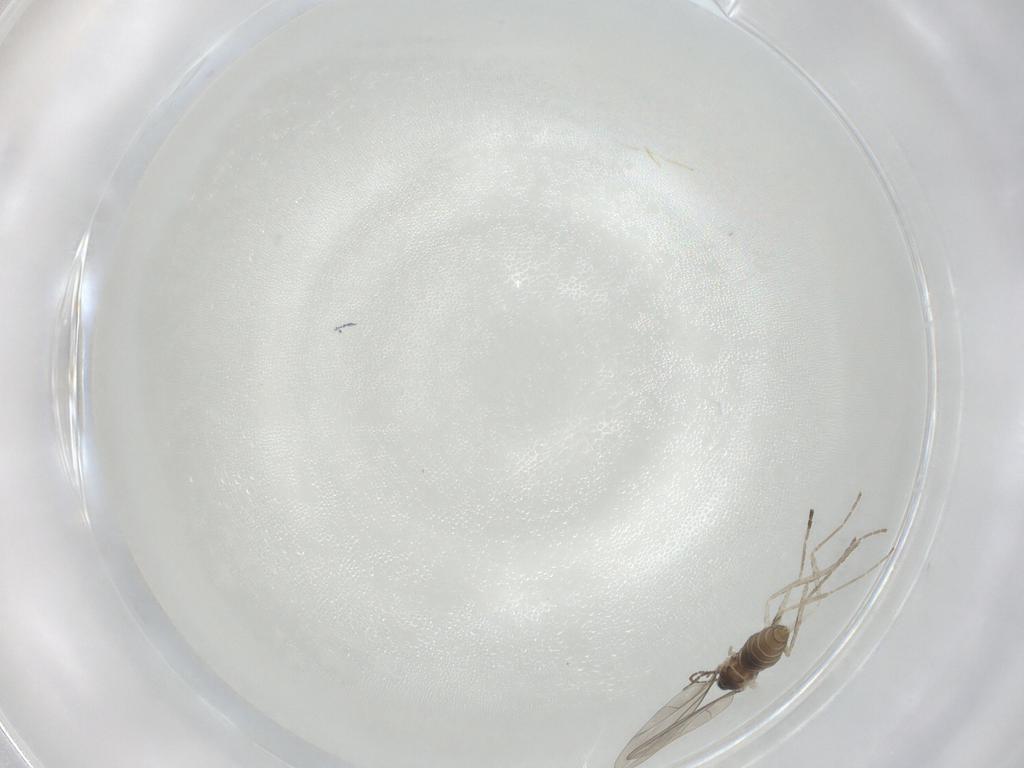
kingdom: Animalia
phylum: Arthropoda
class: Insecta
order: Diptera
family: Cecidomyiidae
